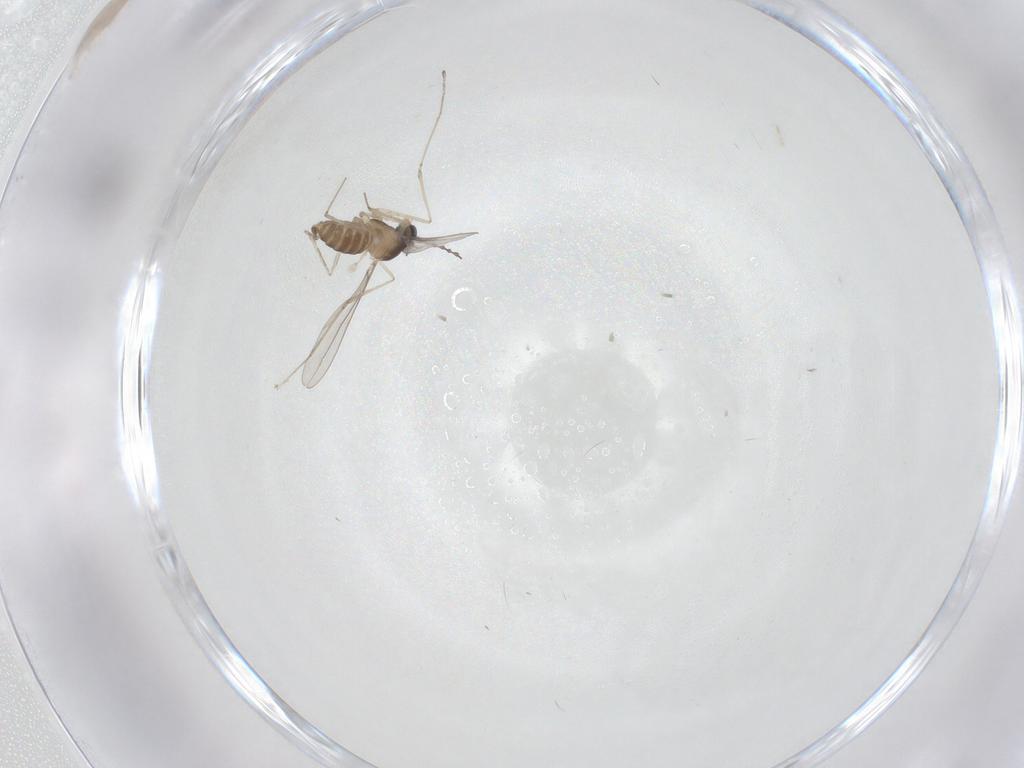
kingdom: Animalia
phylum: Arthropoda
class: Insecta
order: Diptera
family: Cecidomyiidae
